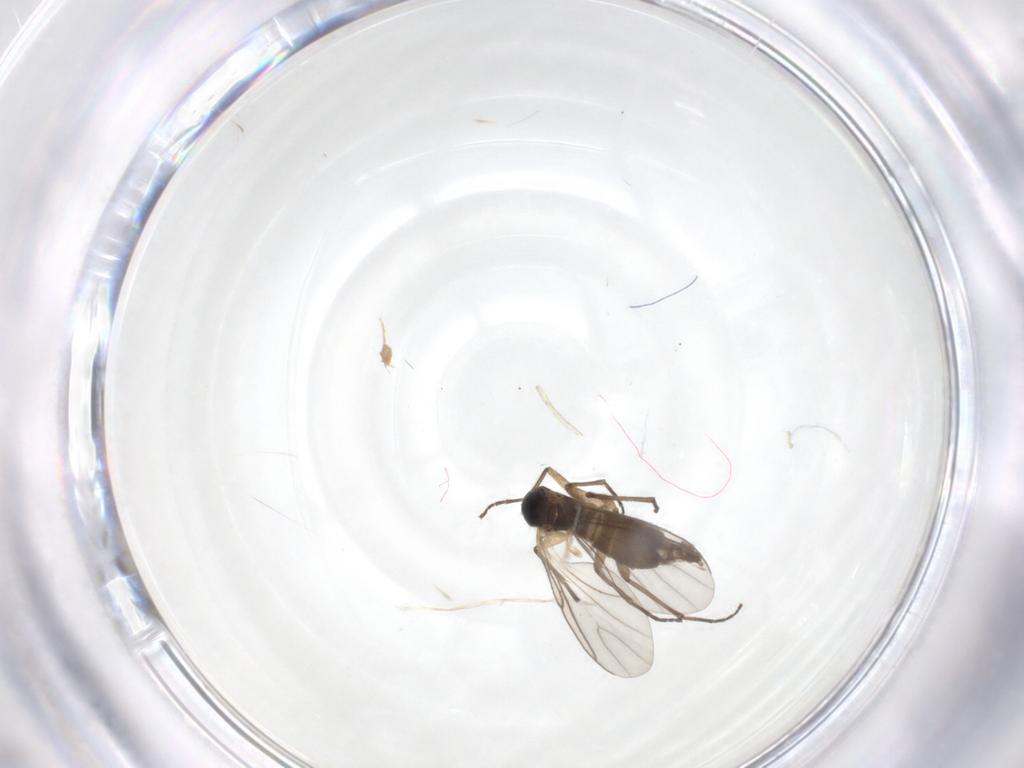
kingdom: Animalia
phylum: Arthropoda
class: Insecta
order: Diptera
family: Sciaridae
